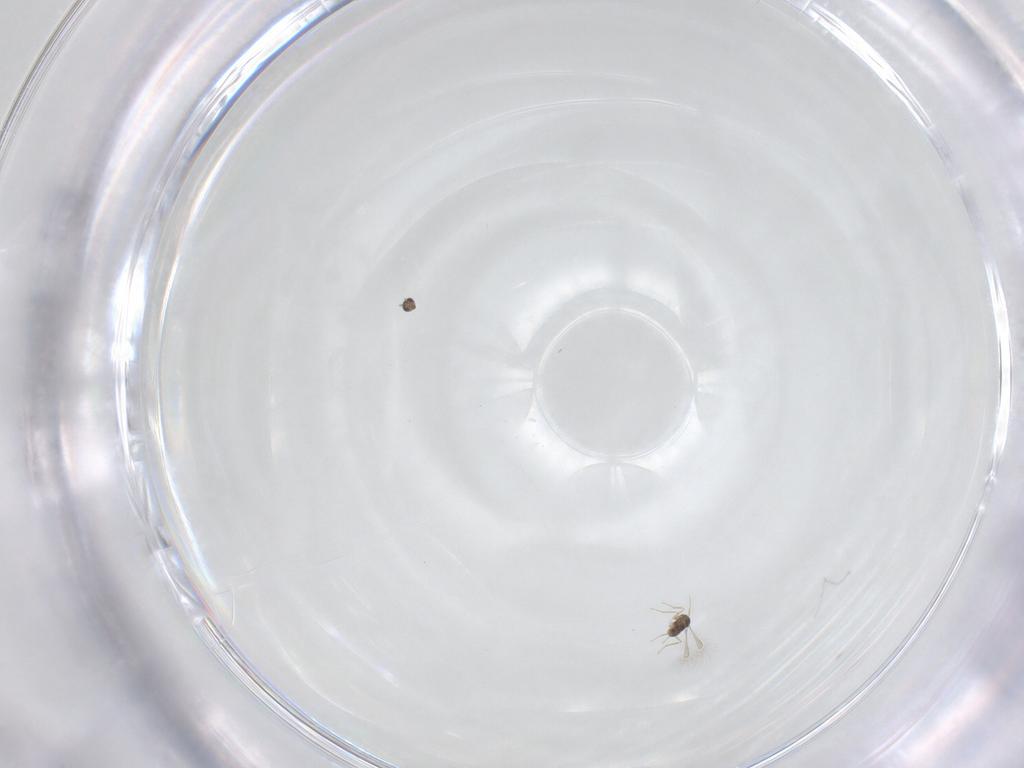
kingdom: Animalia
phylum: Arthropoda
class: Insecta
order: Hymenoptera
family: Mymaridae
